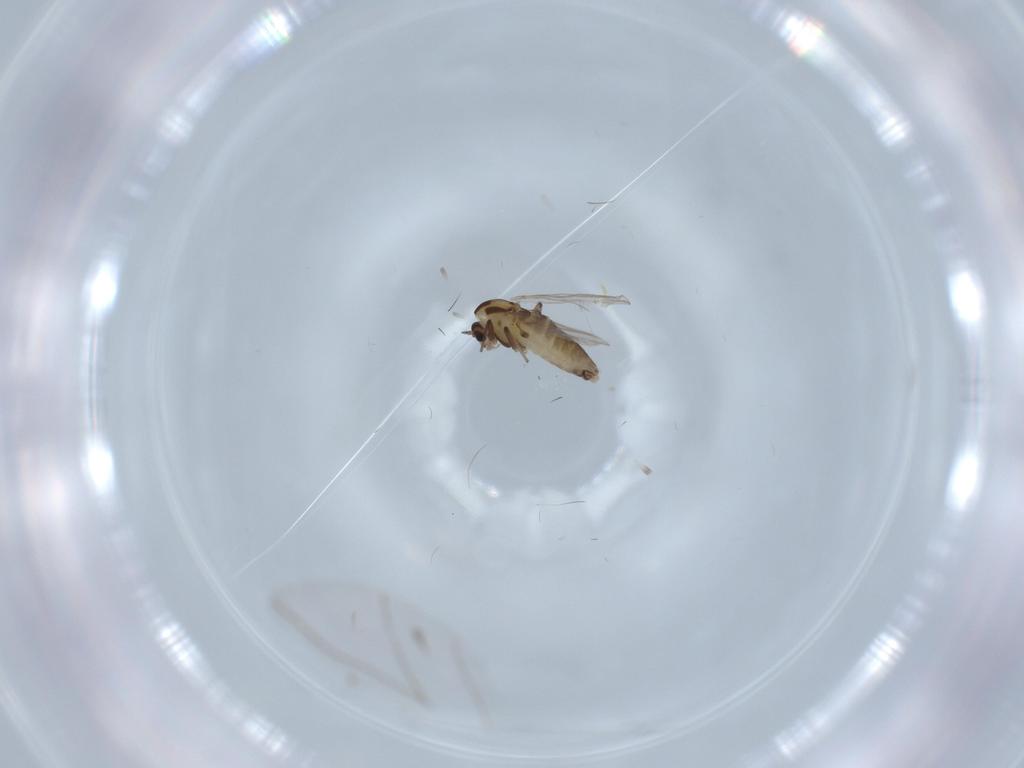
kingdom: Animalia
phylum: Arthropoda
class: Insecta
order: Diptera
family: Chironomidae
